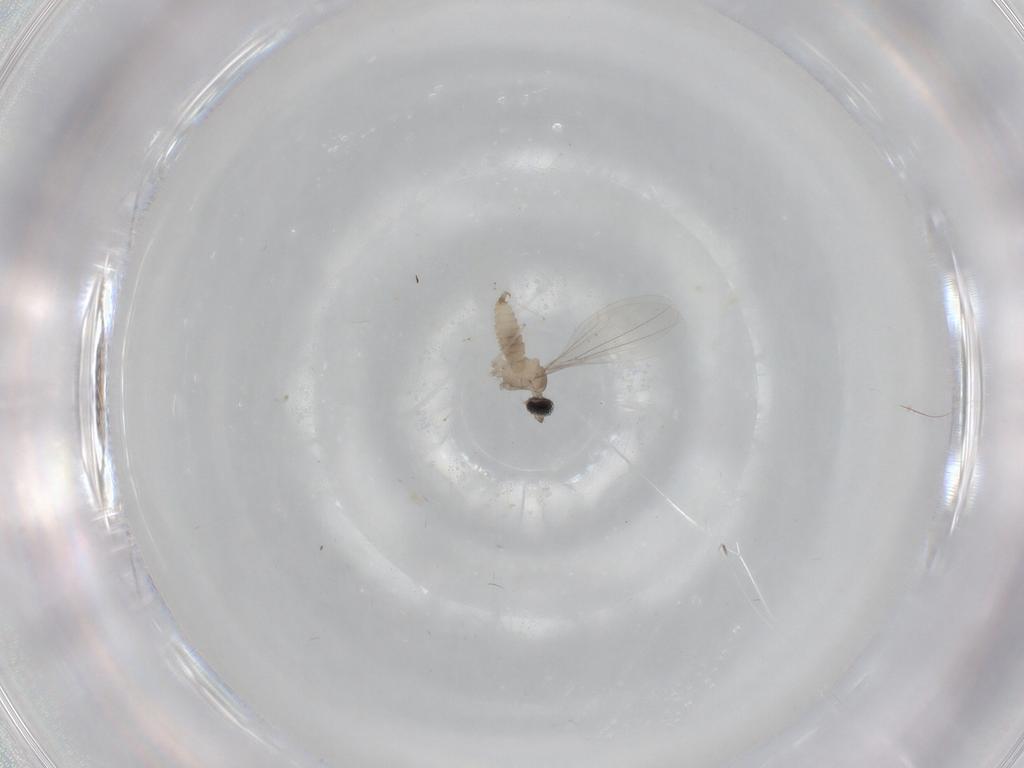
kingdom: Animalia
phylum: Arthropoda
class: Insecta
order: Diptera
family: Cecidomyiidae
